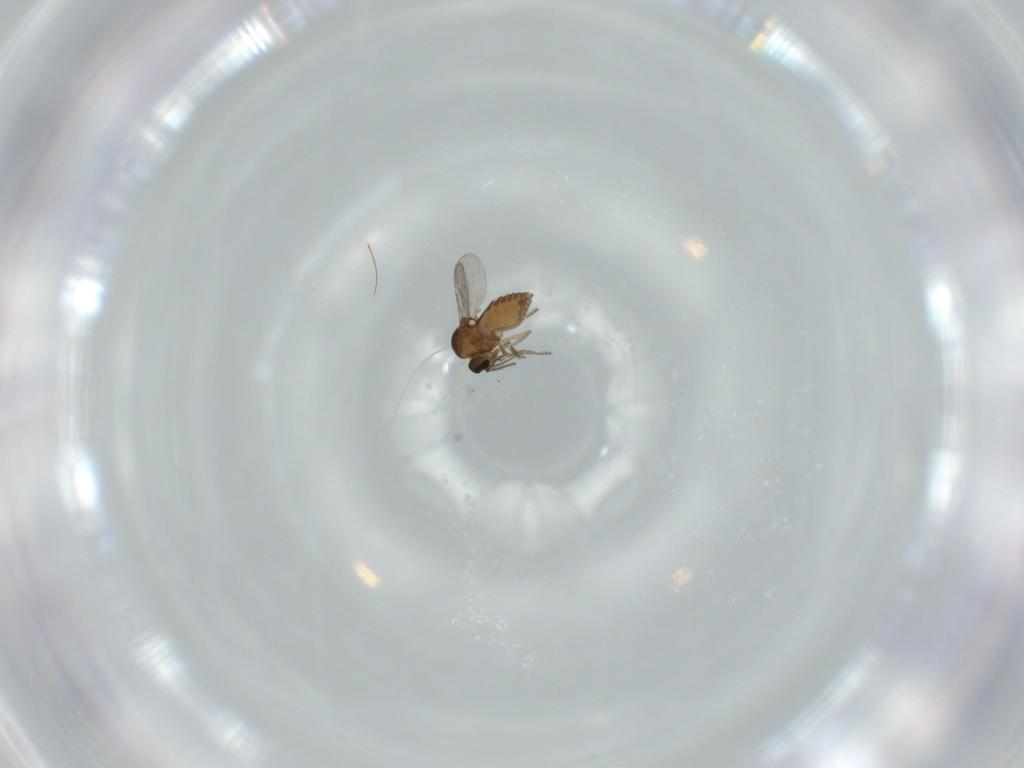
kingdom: Animalia
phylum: Arthropoda
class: Insecta
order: Diptera
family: Ceratopogonidae
